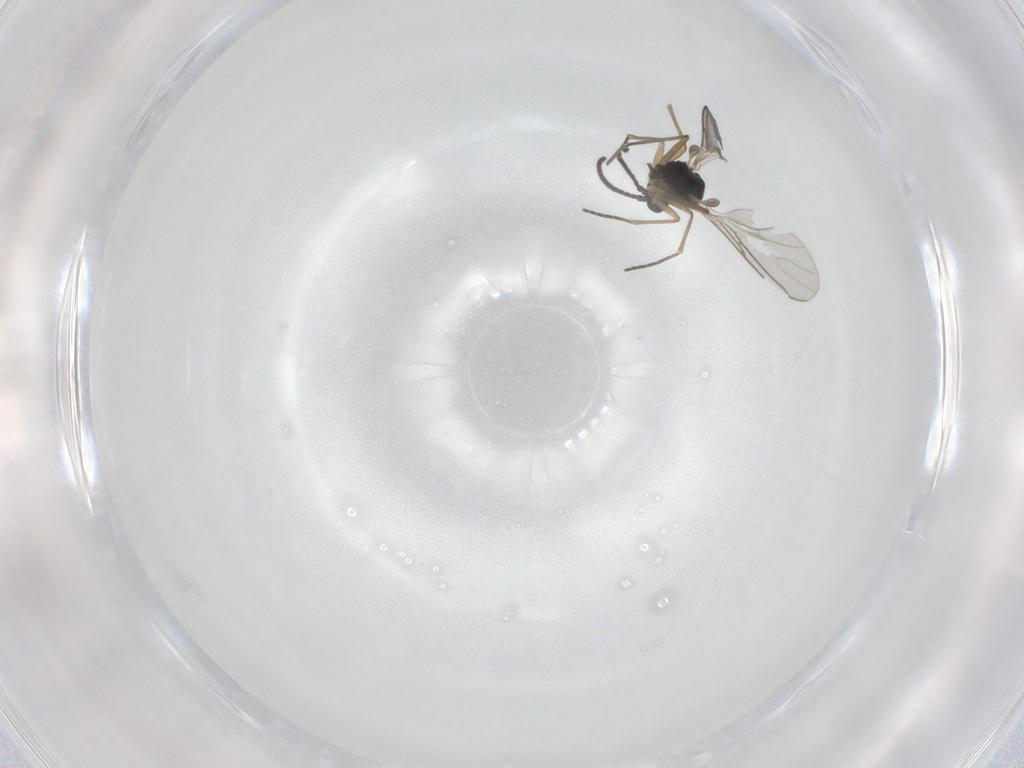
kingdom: Animalia
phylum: Arthropoda
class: Insecta
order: Diptera
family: Sciaridae
